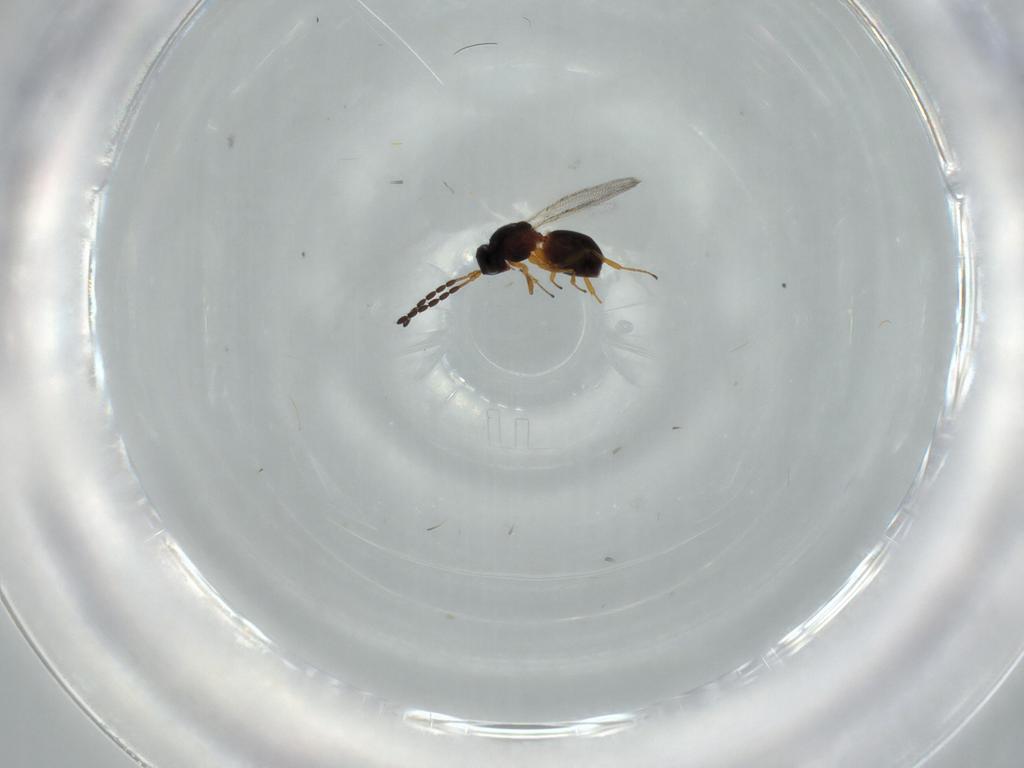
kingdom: Animalia
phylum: Arthropoda
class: Insecta
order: Hymenoptera
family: Figitidae
